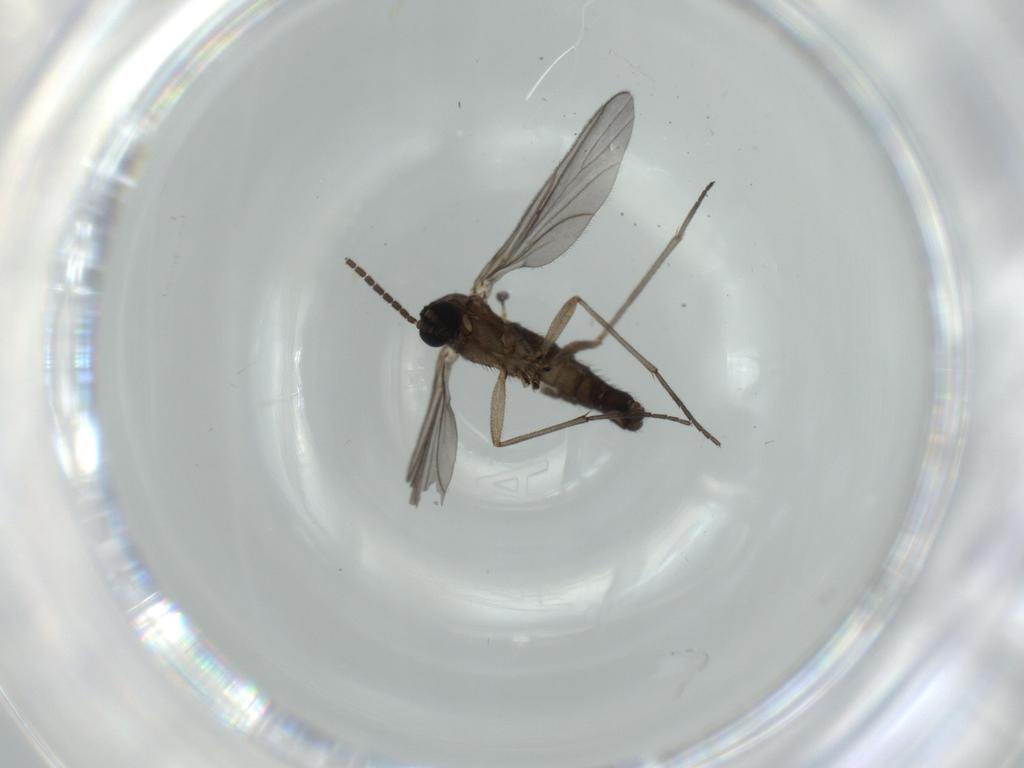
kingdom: Animalia
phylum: Arthropoda
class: Insecta
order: Diptera
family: Sciaridae
